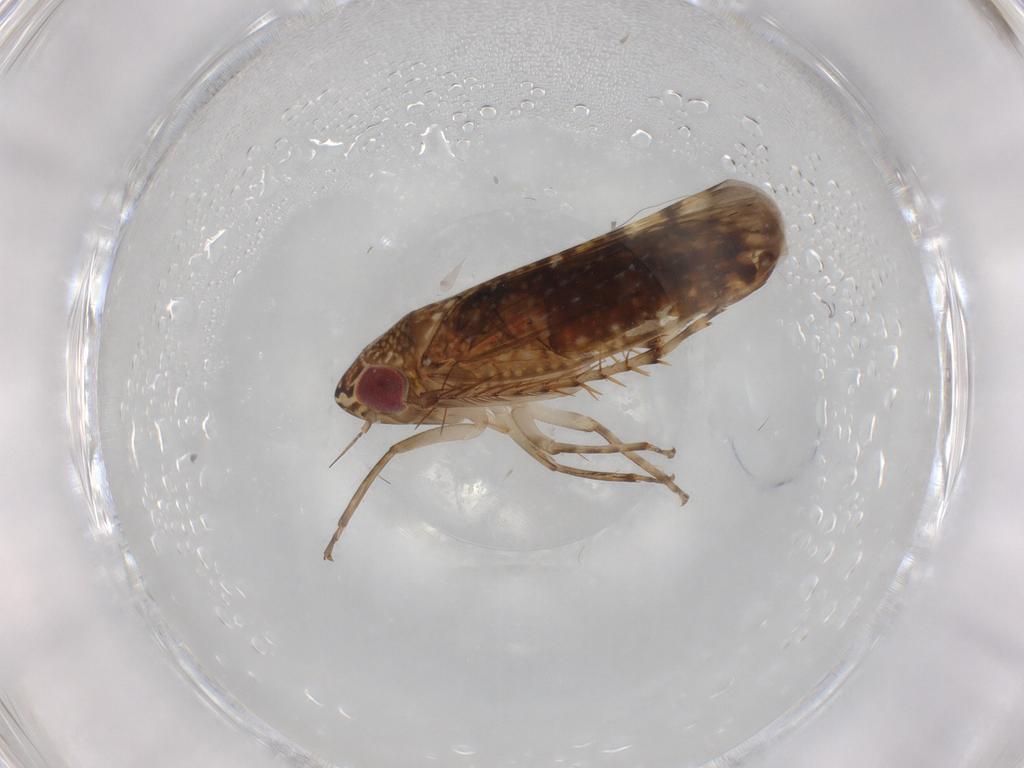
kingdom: Animalia
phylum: Arthropoda
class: Insecta
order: Hemiptera
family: Cicadellidae
